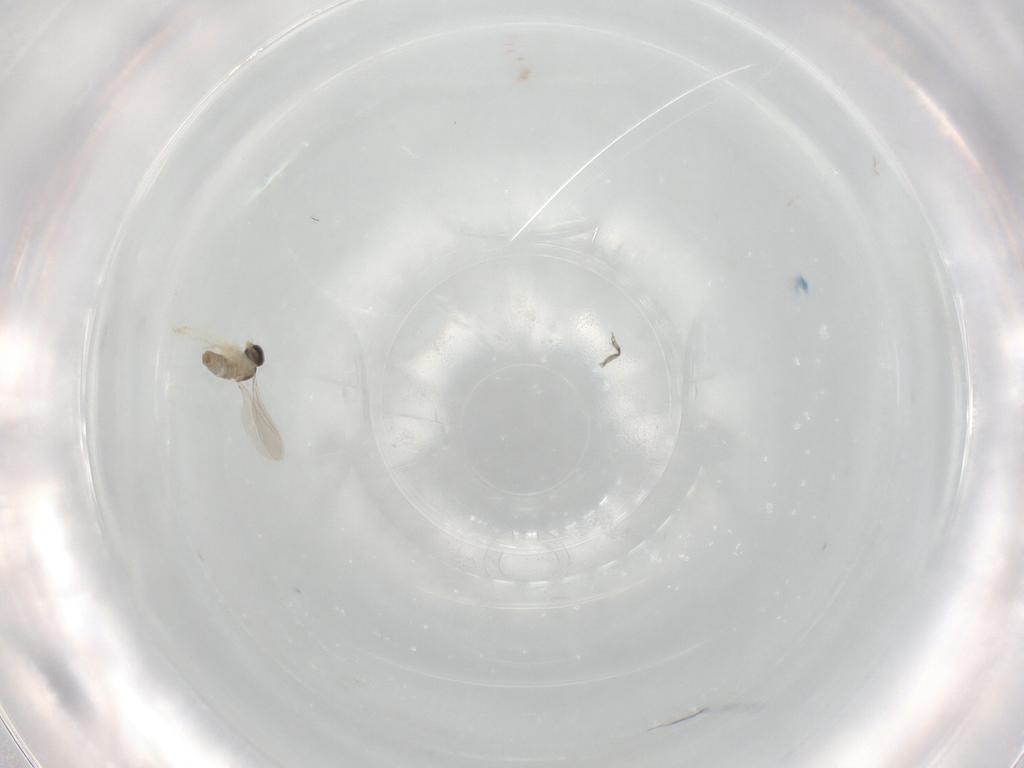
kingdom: Animalia
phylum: Arthropoda
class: Insecta
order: Diptera
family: Cecidomyiidae
